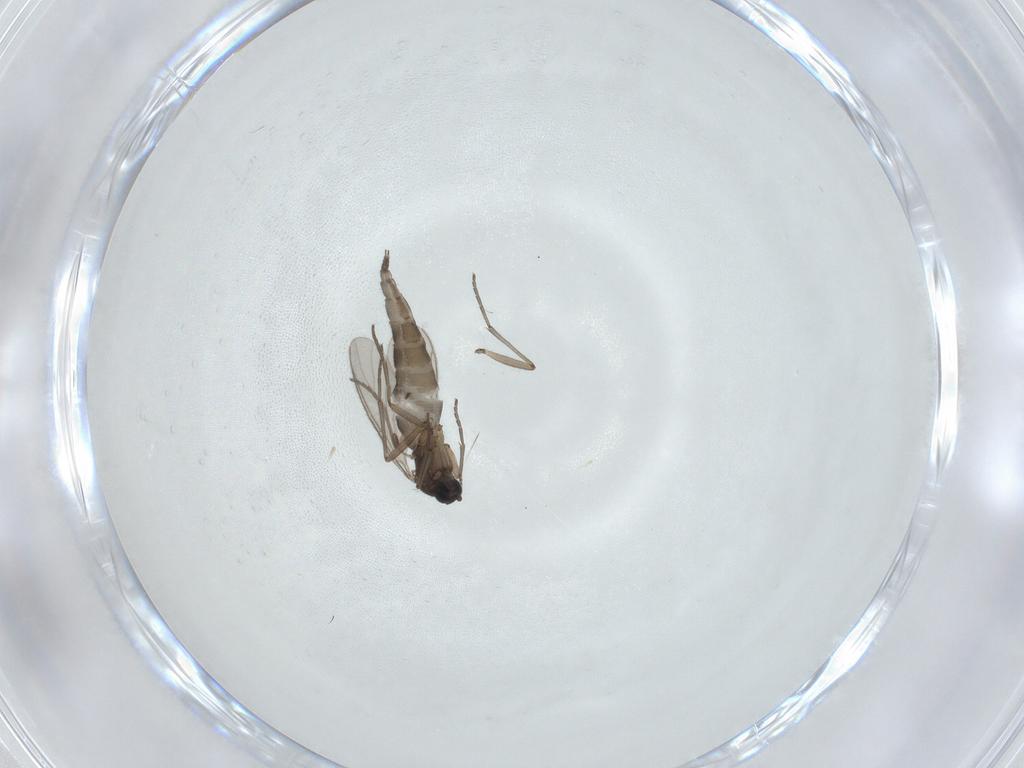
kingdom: Animalia
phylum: Arthropoda
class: Insecta
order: Diptera
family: Sciaridae
